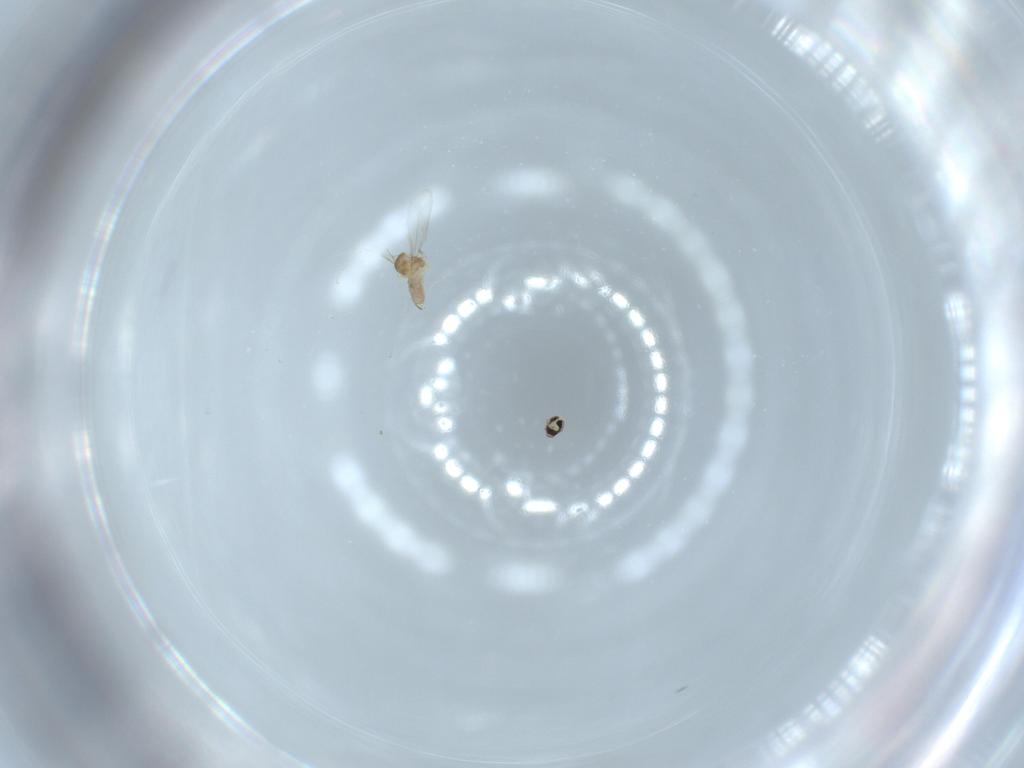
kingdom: Animalia
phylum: Arthropoda
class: Insecta
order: Diptera
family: Cecidomyiidae
